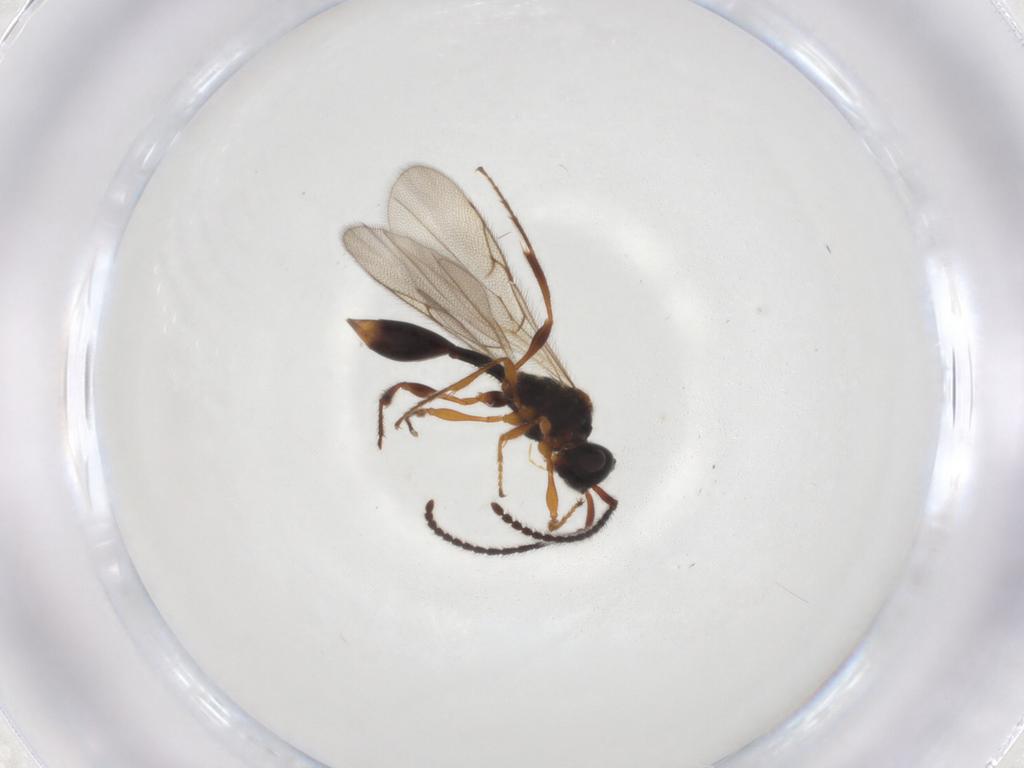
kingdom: Animalia
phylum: Arthropoda
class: Insecta
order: Hymenoptera
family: Diapriidae
